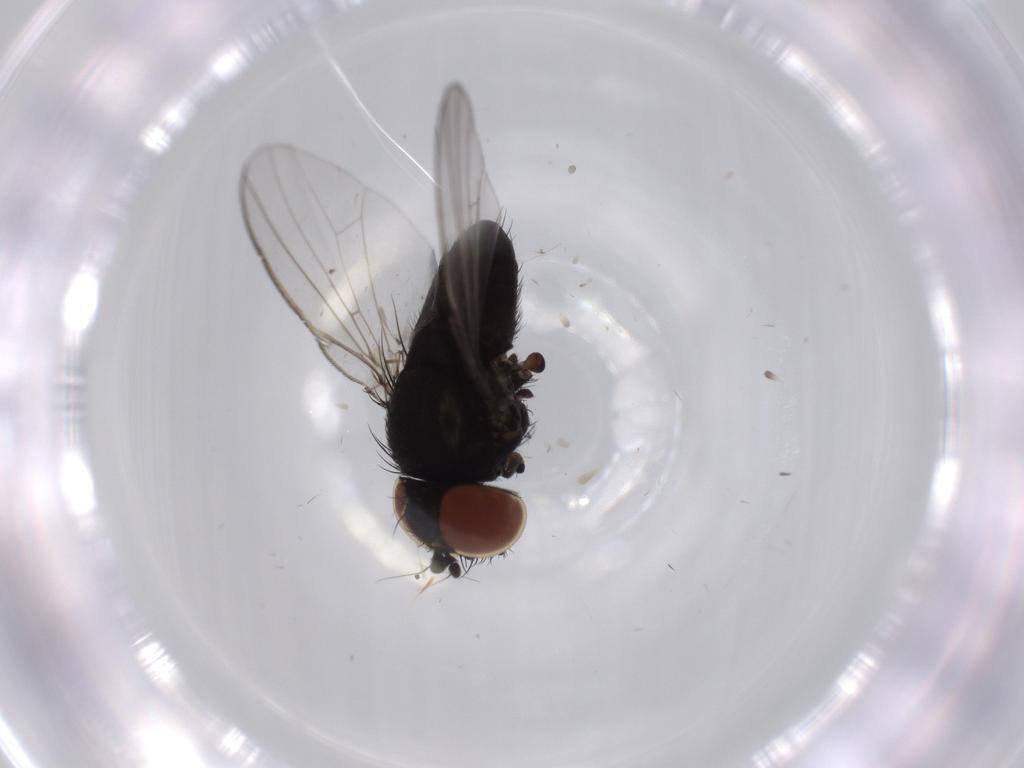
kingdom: Animalia
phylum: Arthropoda
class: Insecta
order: Diptera
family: Milichiidae
